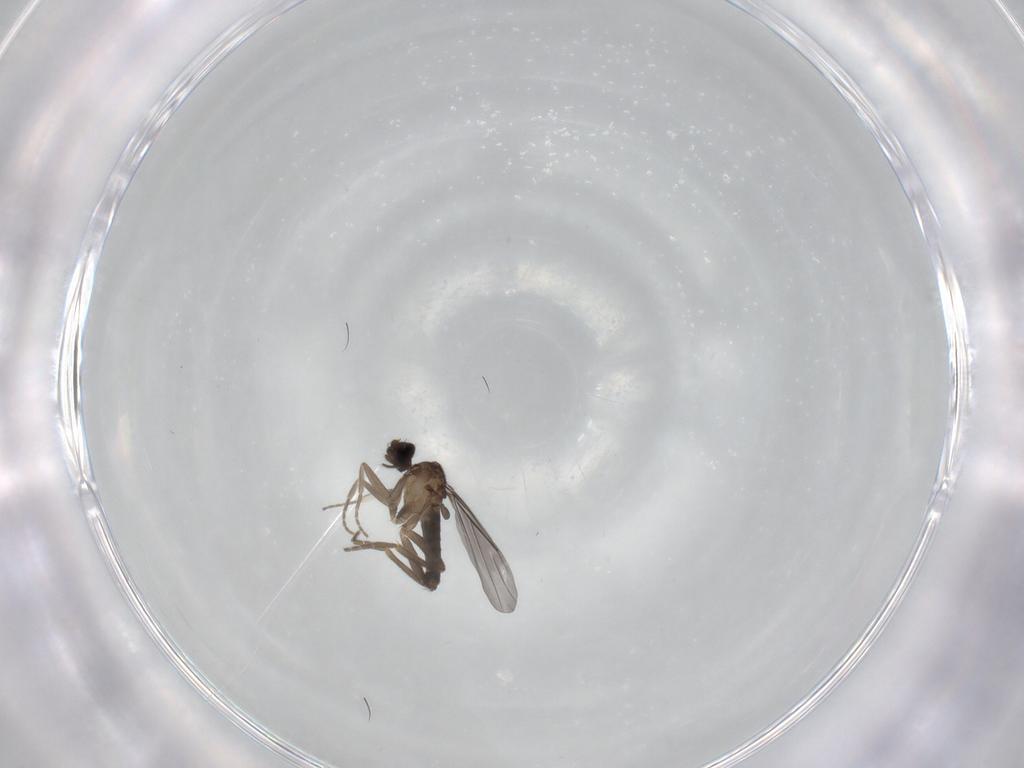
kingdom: Animalia
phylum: Arthropoda
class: Insecta
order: Diptera
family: Phoridae
